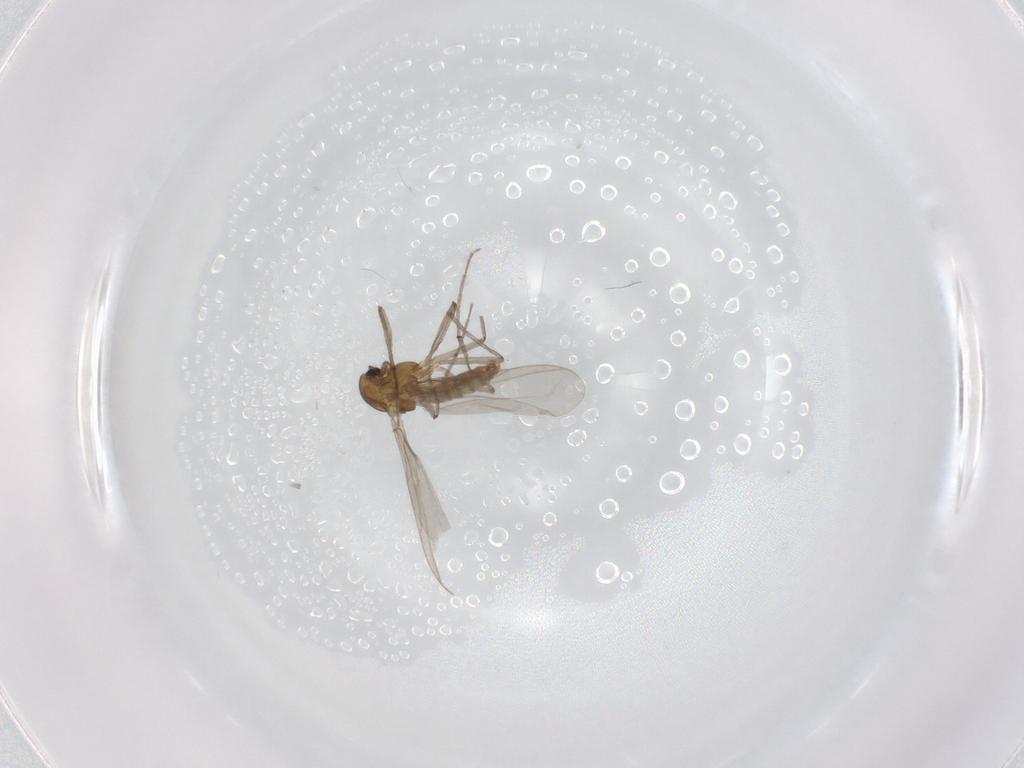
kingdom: Animalia
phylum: Arthropoda
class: Insecta
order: Diptera
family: Chironomidae
